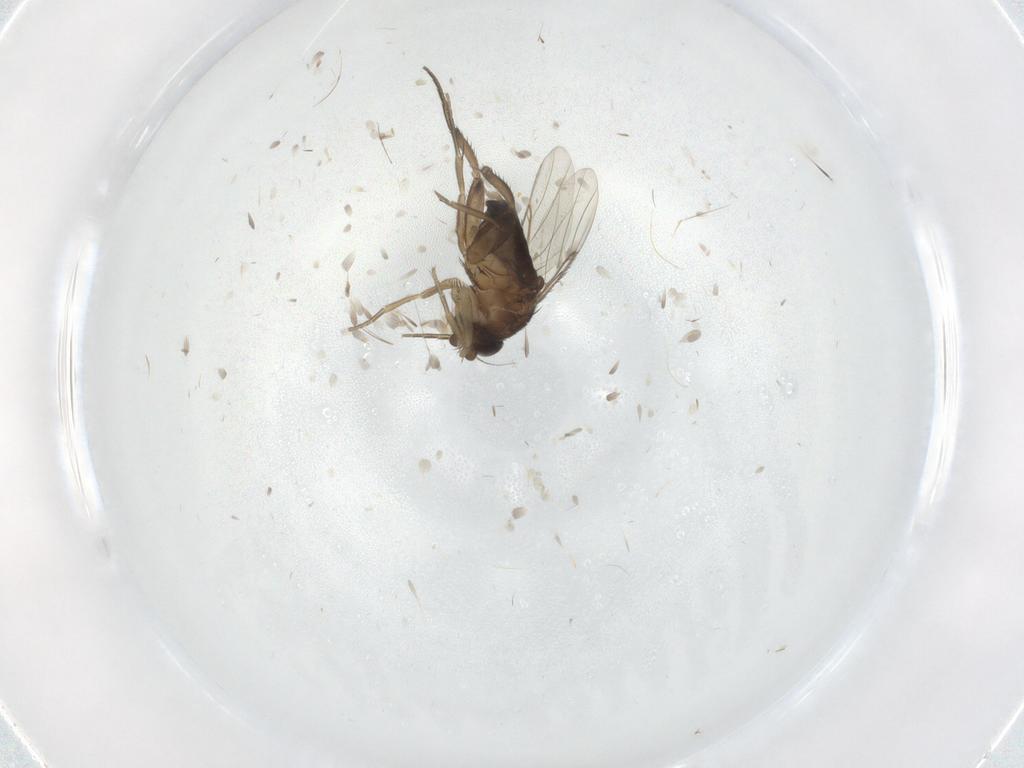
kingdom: Animalia
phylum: Arthropoda
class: Insecta
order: Diptera
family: Phoridae
